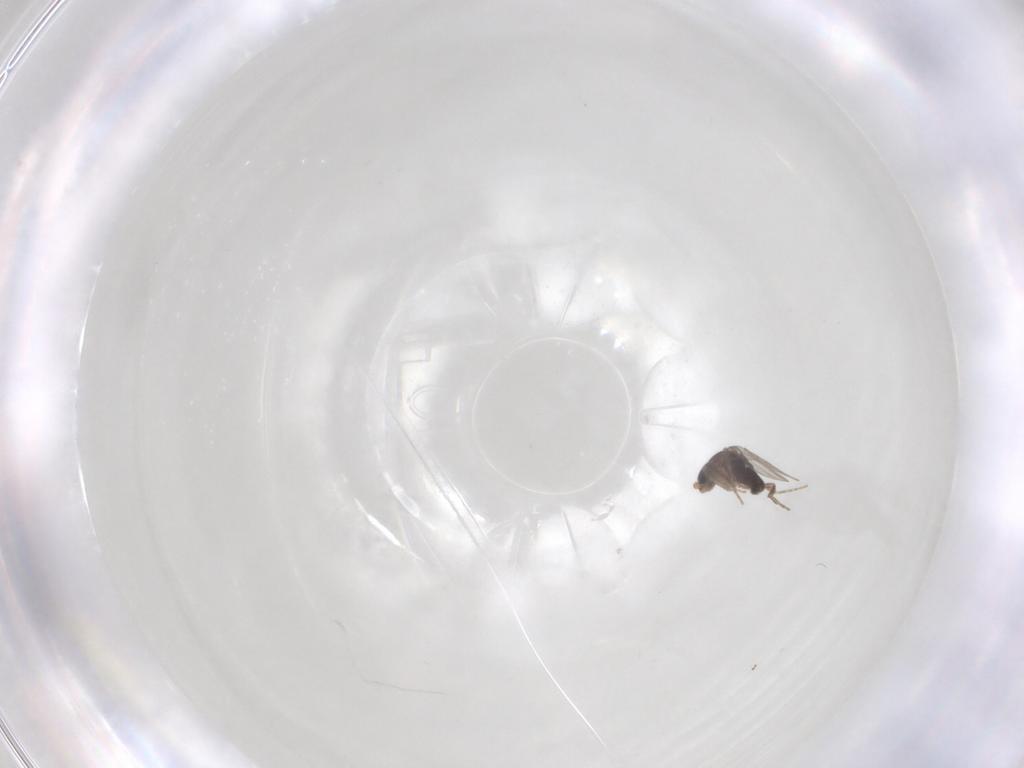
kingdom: Animalia
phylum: Arthropoda
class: Insecta
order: Diptera
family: Phoridae
